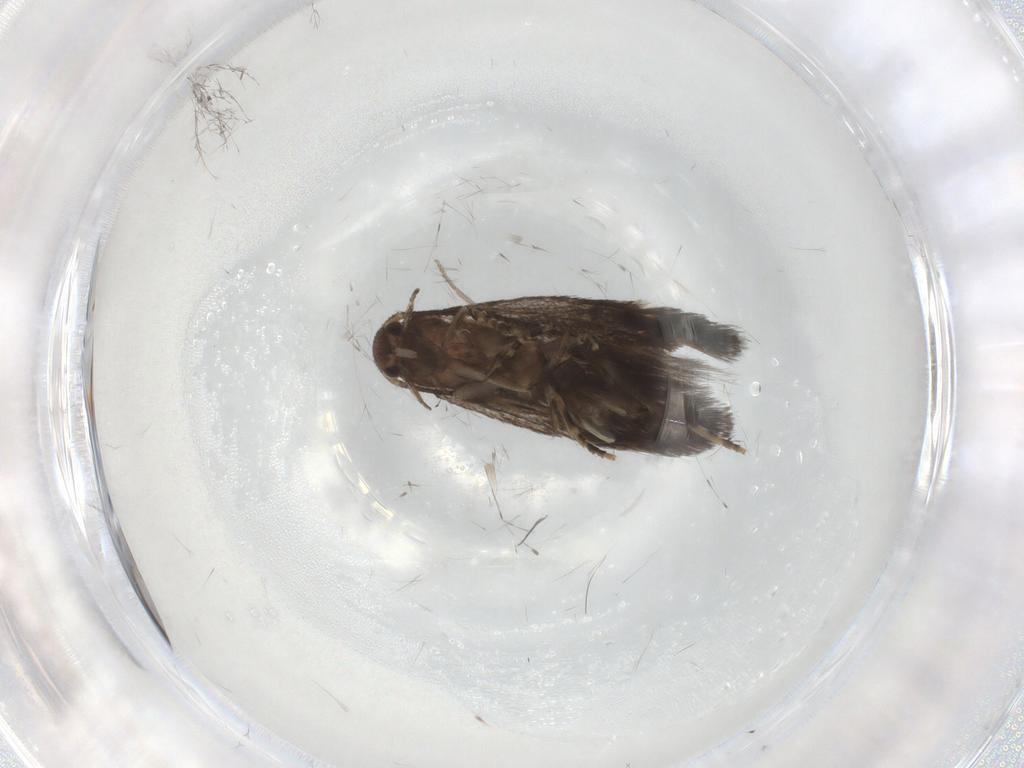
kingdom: Animalia
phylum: Arthropoda
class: Insecta
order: Lepidoptera
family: Elachistidae
